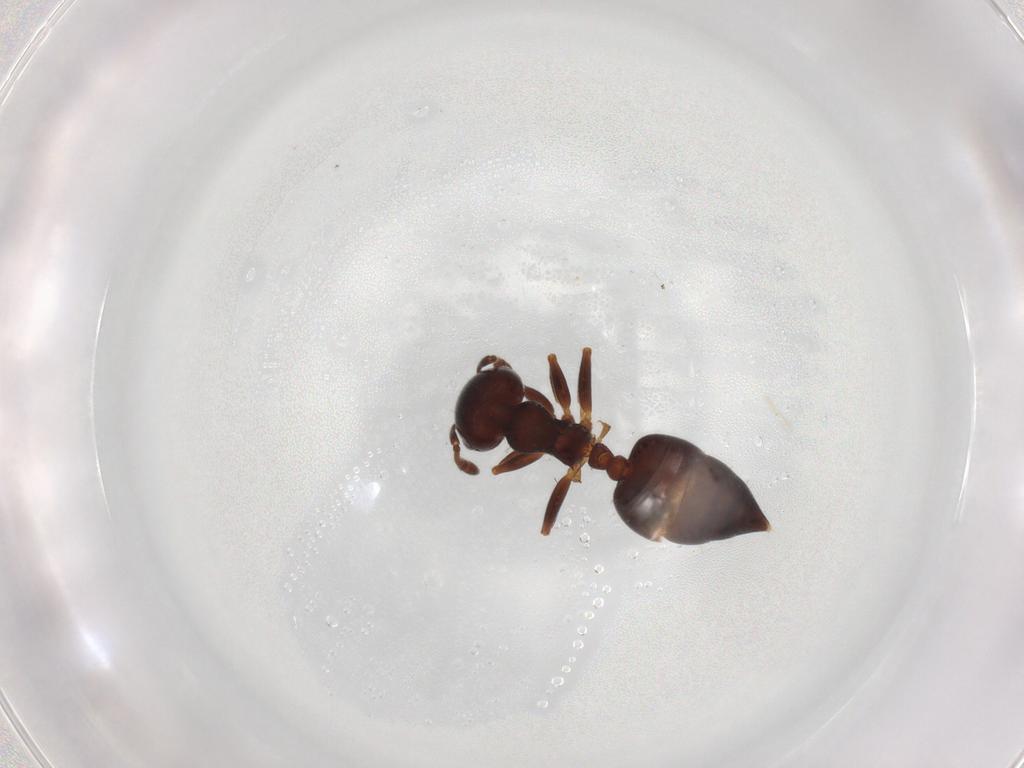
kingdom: Animalia
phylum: Arthropoda
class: Insecta
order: Hymenoptera
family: Formicidae
